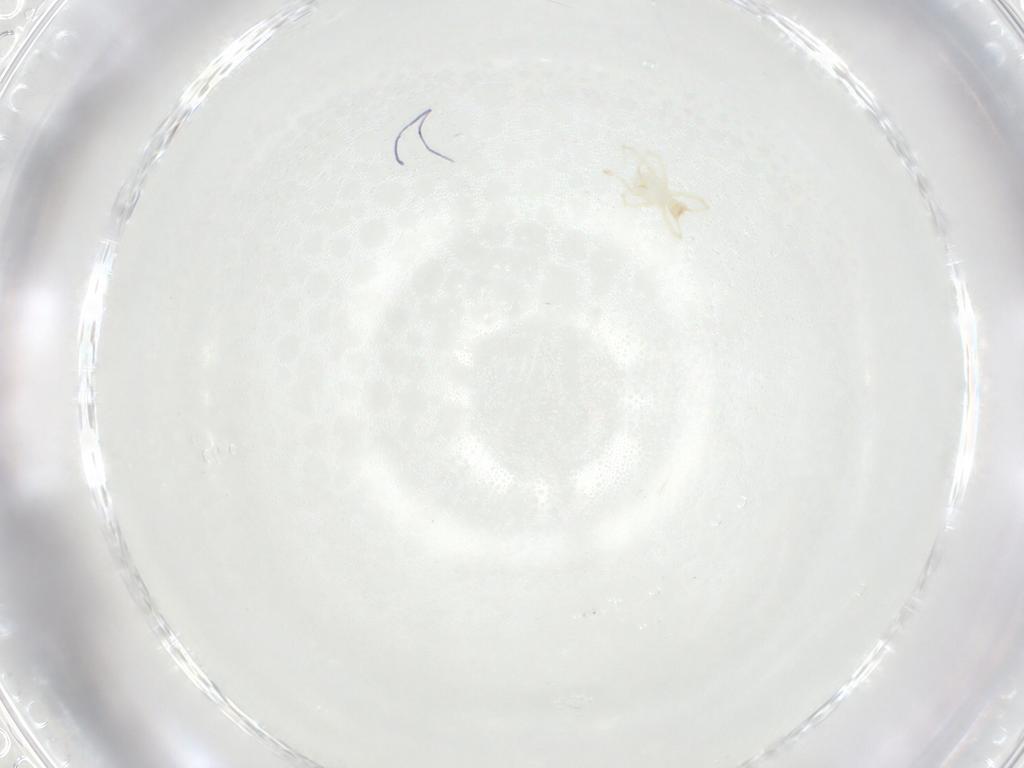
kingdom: Animalia
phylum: Arthropoda
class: Arachnida
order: Trombidiformes
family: Erythraeidae
